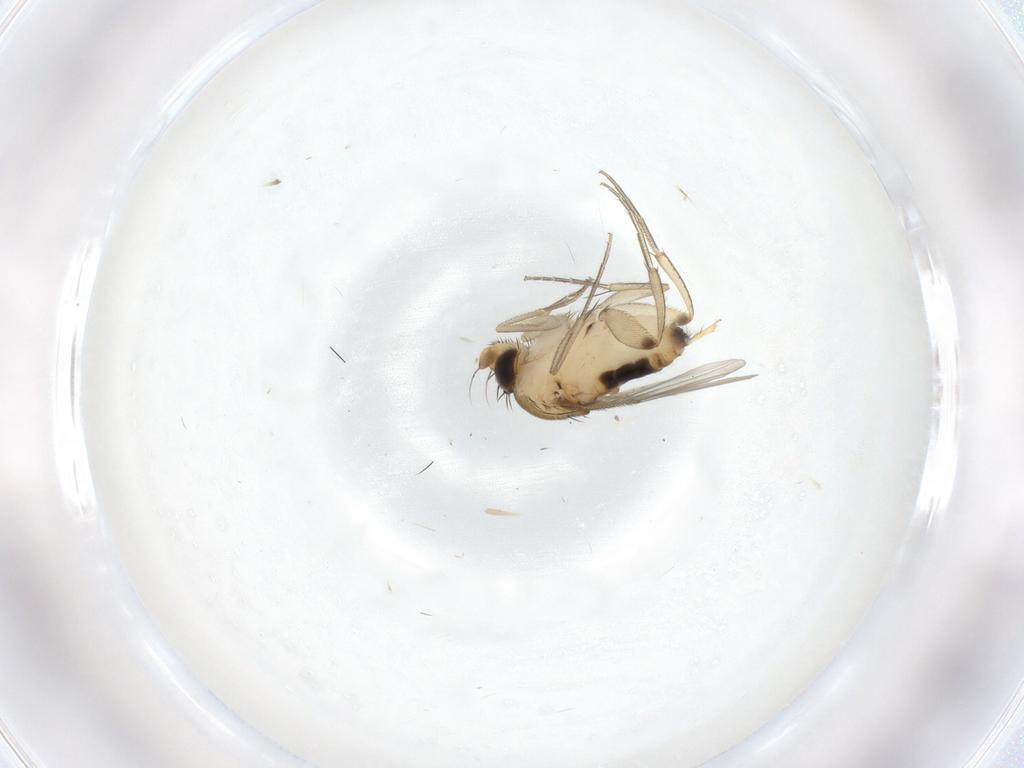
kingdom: Animalia
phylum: Arthropoda
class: Insecta
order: Diptera
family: Phoridae
